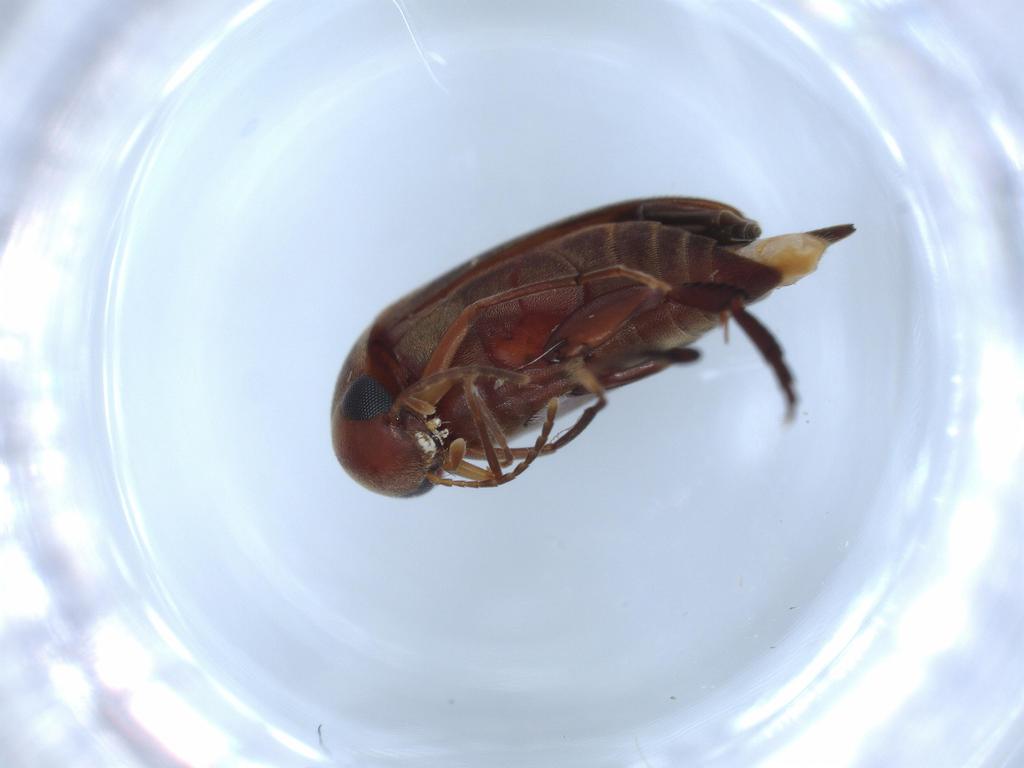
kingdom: Animalia
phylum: Arthropoda
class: Insecta
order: Coleoptera
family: Mordellidae
